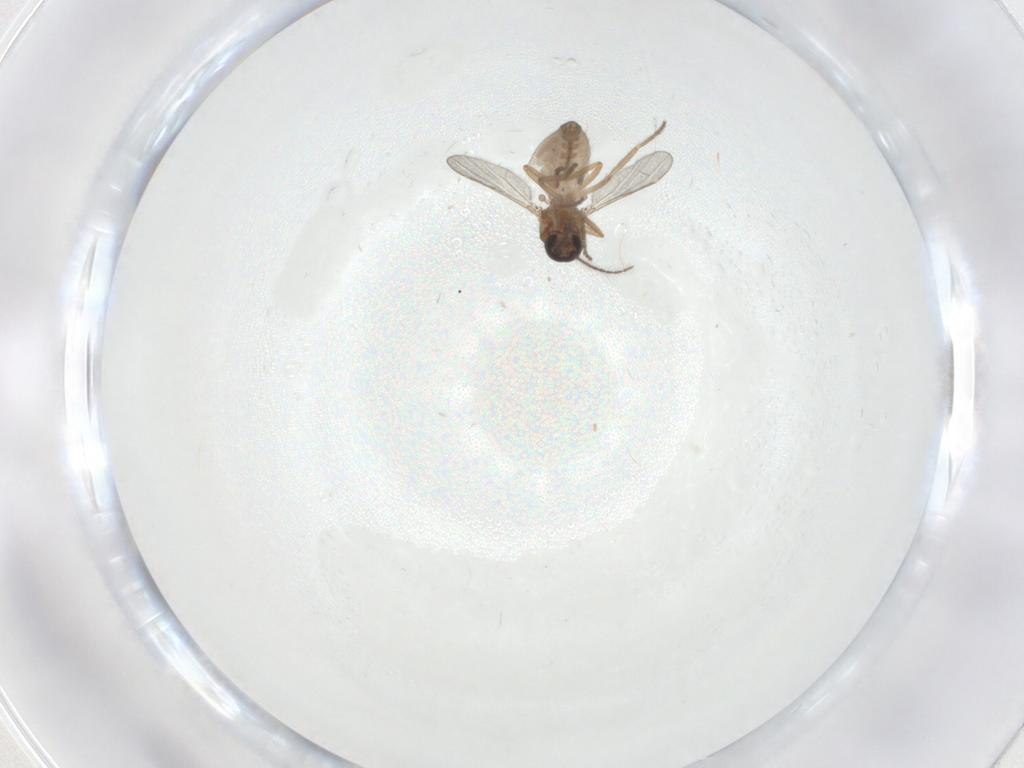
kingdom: Animalia
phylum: Arthropoda
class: Insecta
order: Diptera
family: Ceratopogonidae
